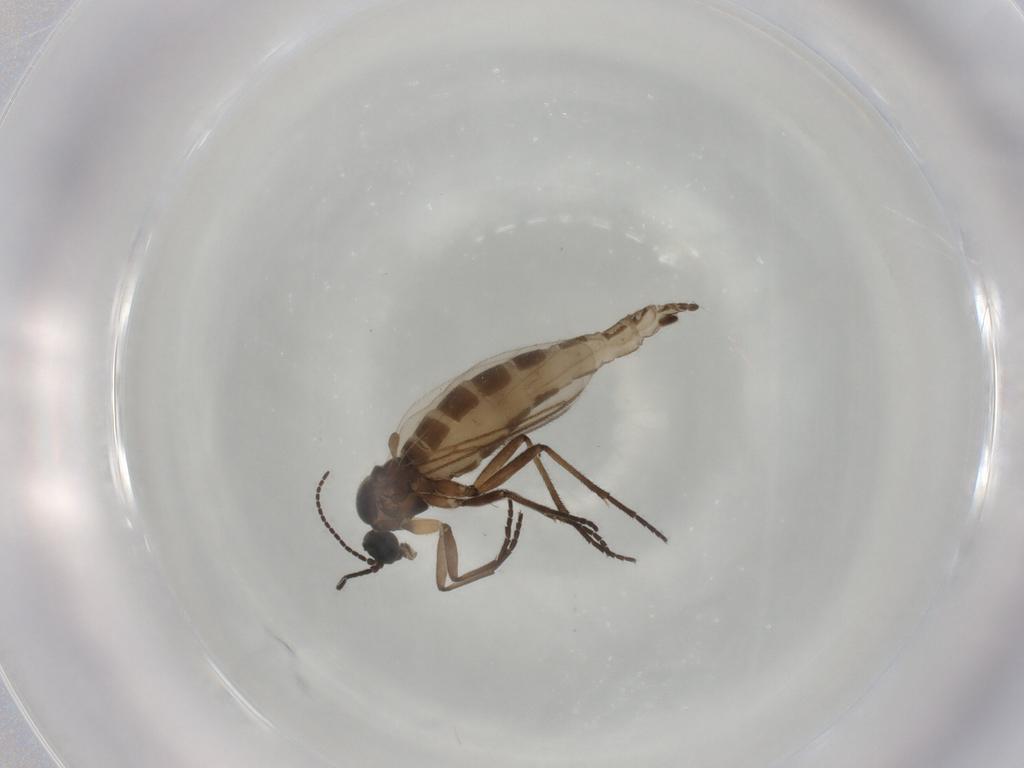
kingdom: Animalia
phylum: Arthropoda
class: Insecta
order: Diptera
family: Sciaridae
